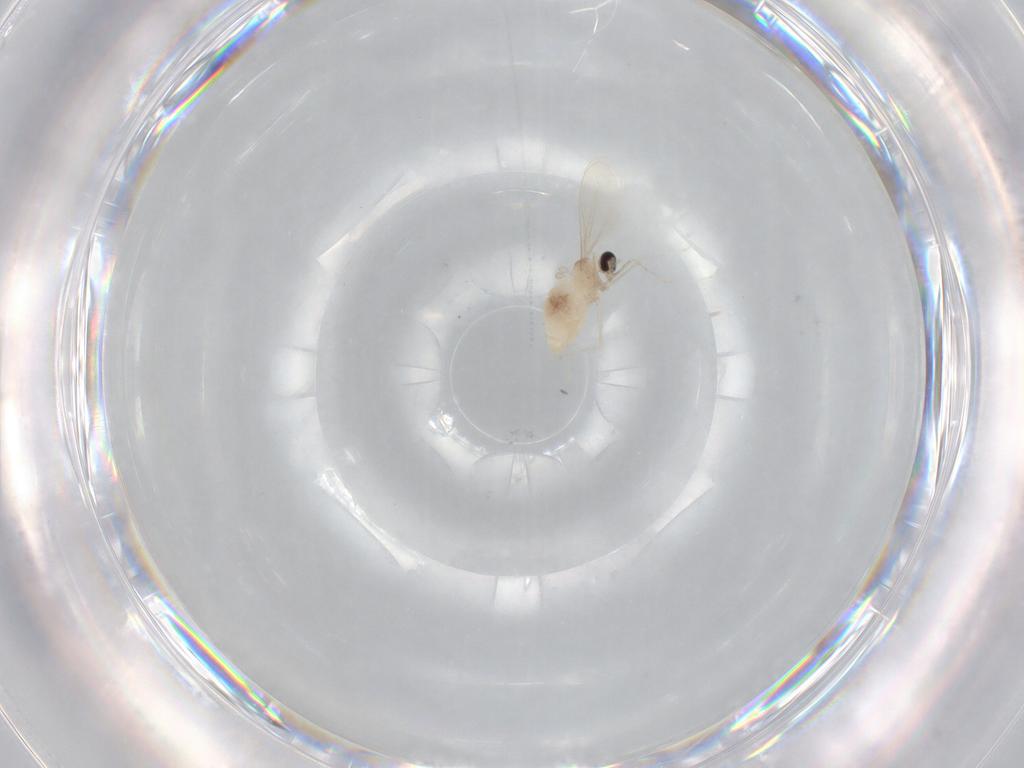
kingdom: Animalia
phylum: Arthropoda
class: Insecta
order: Diptera
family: Cecidomyiidae
